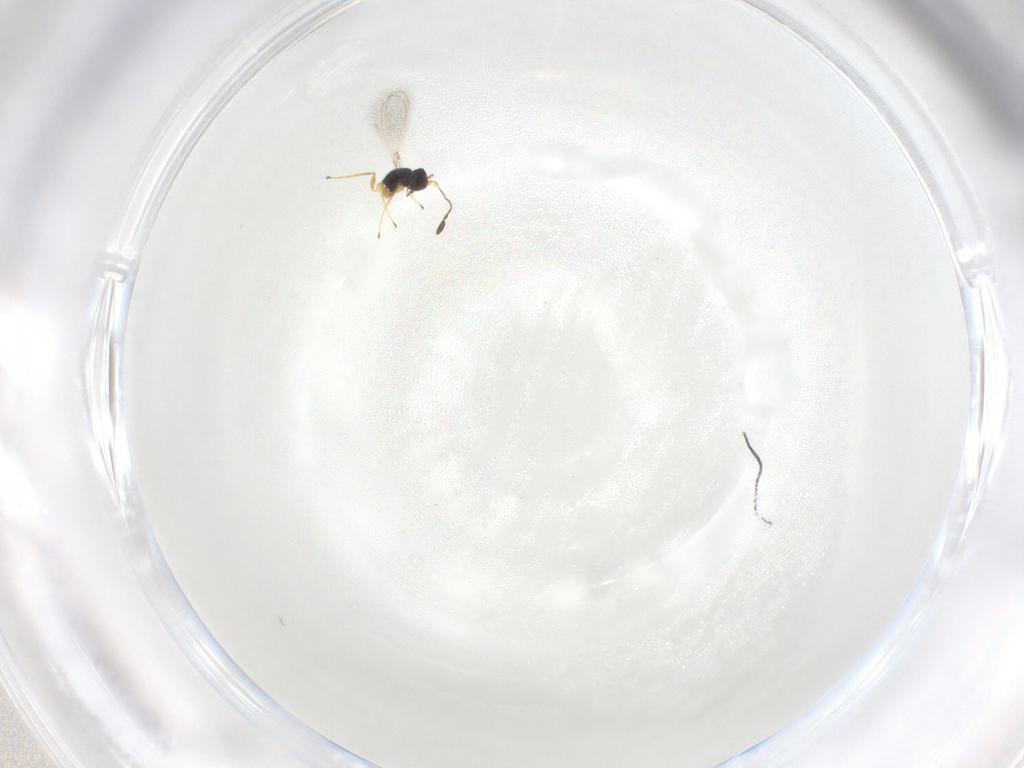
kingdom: Animalia
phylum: Arthropoda
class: Insecta
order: Hymenoptera
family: Mymaridae
